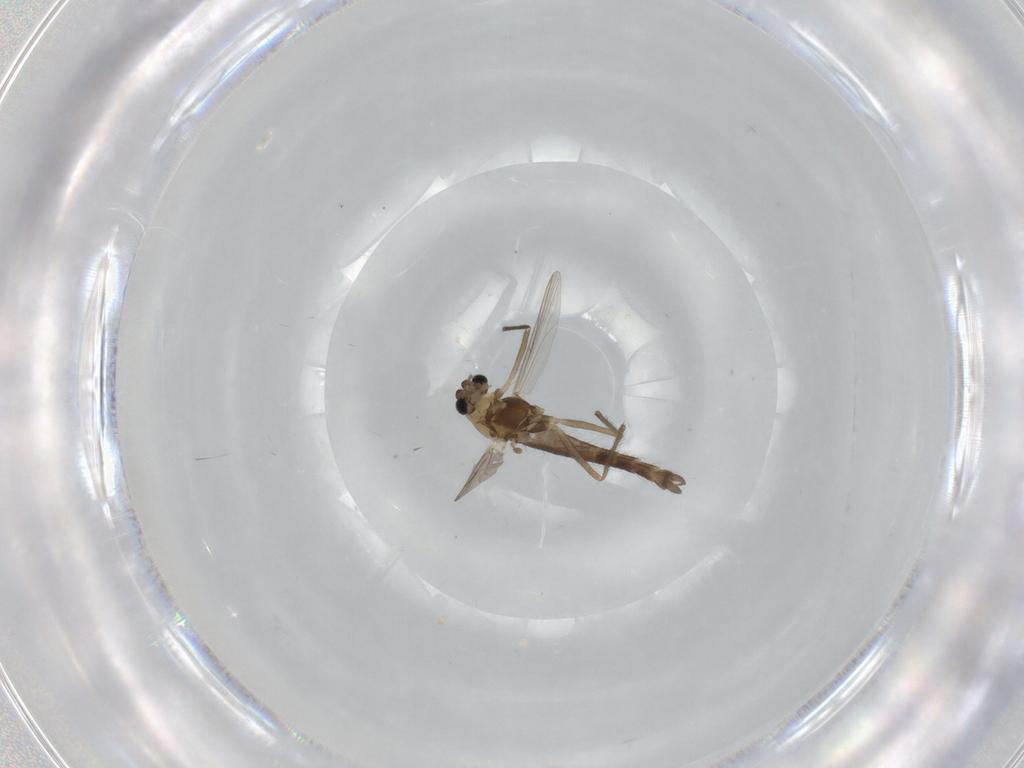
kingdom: Animalia
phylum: Arthropoda
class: Insecta
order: Diptera
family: Chironomidae
